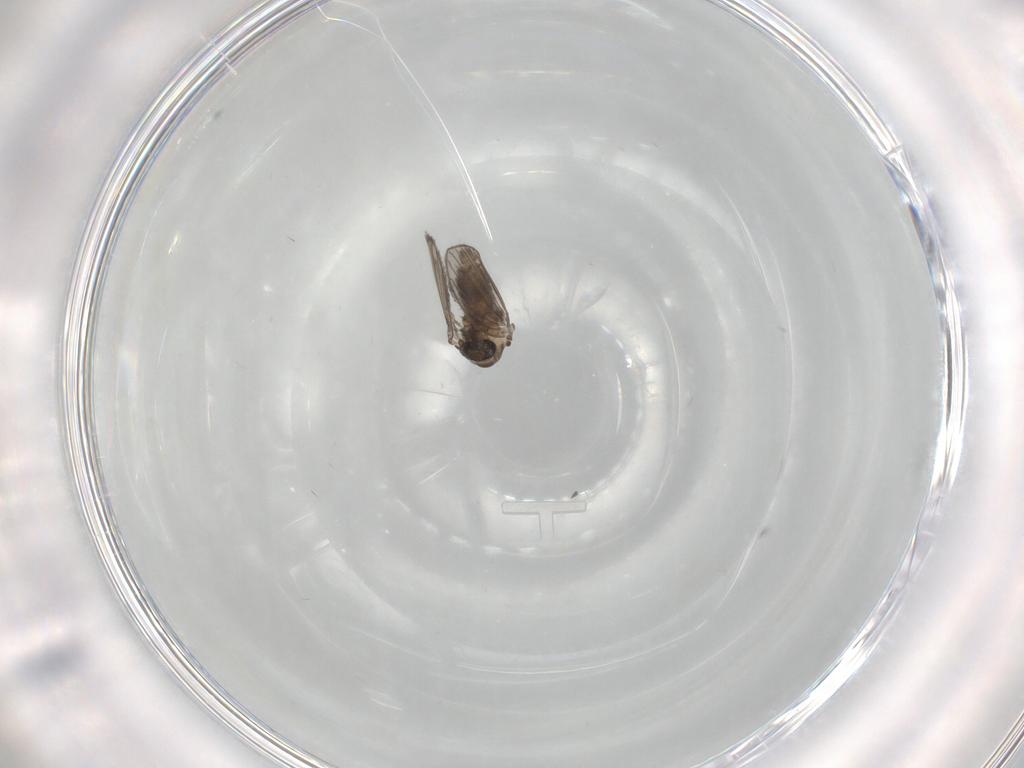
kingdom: Animalia
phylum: Arthropoda
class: Insecta
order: Diptera
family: Psychodidae
